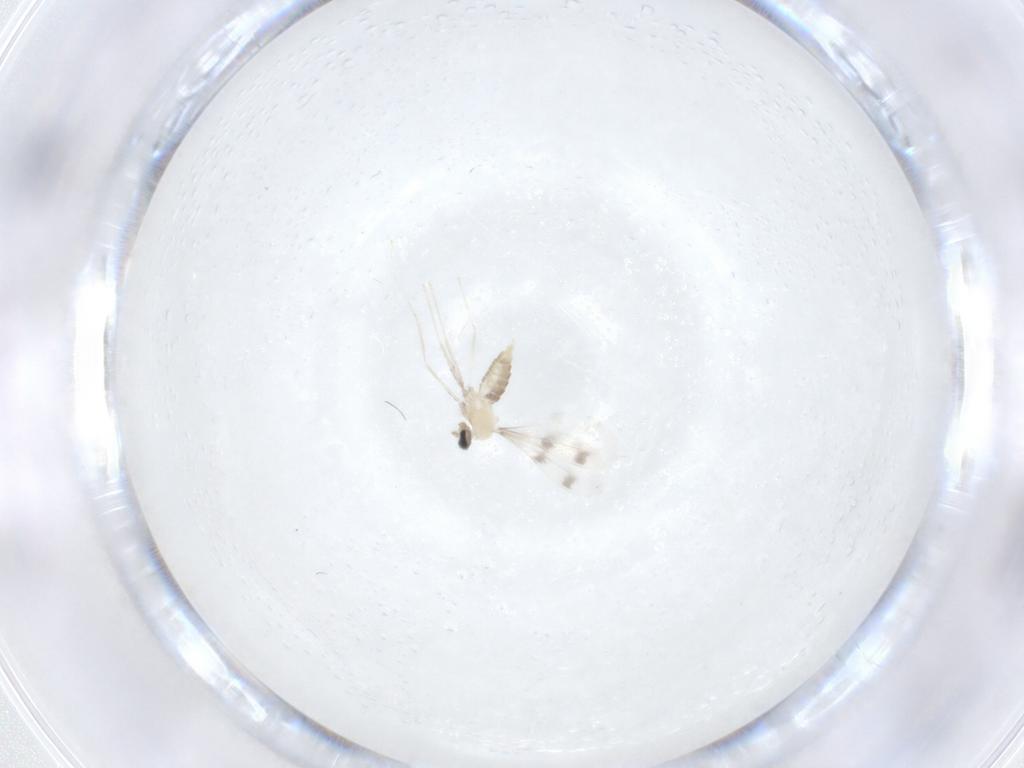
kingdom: Animalia
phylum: Arthropoda
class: Insecta
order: Diptera
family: Cecidomyiidae
